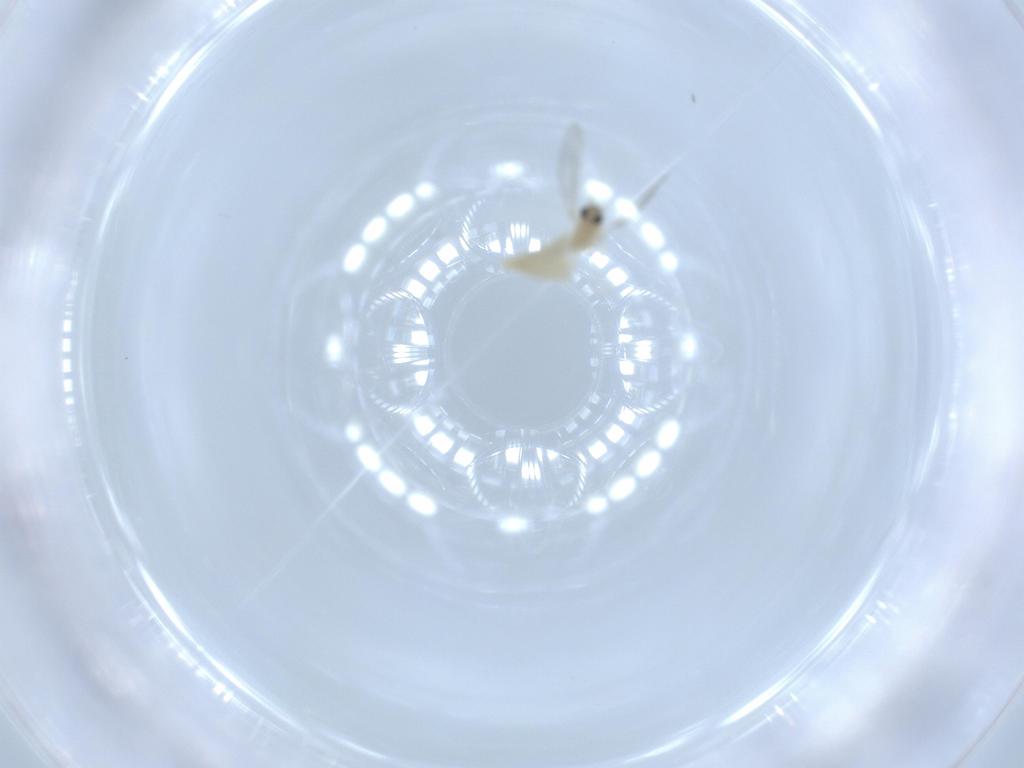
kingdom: Animalia
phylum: Arthropoda
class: Insecta
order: Diptera
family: Cecidomyiidae
